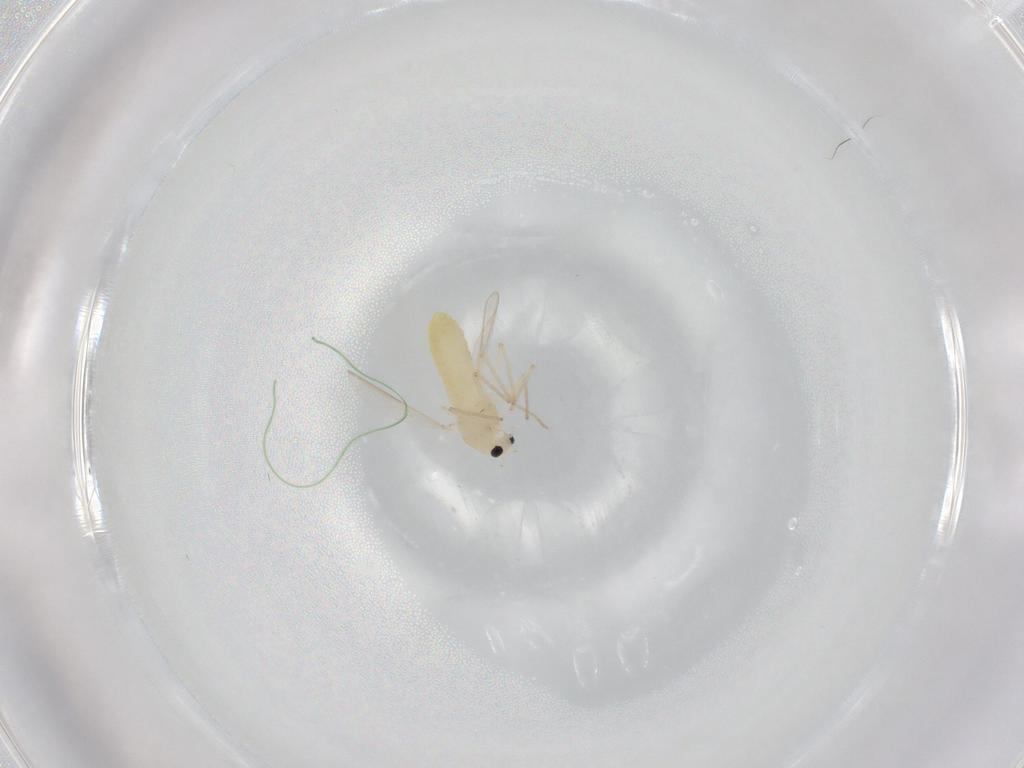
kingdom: Animalia
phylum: Arthropoda
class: Insecta
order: Diptera
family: Chironomidae
